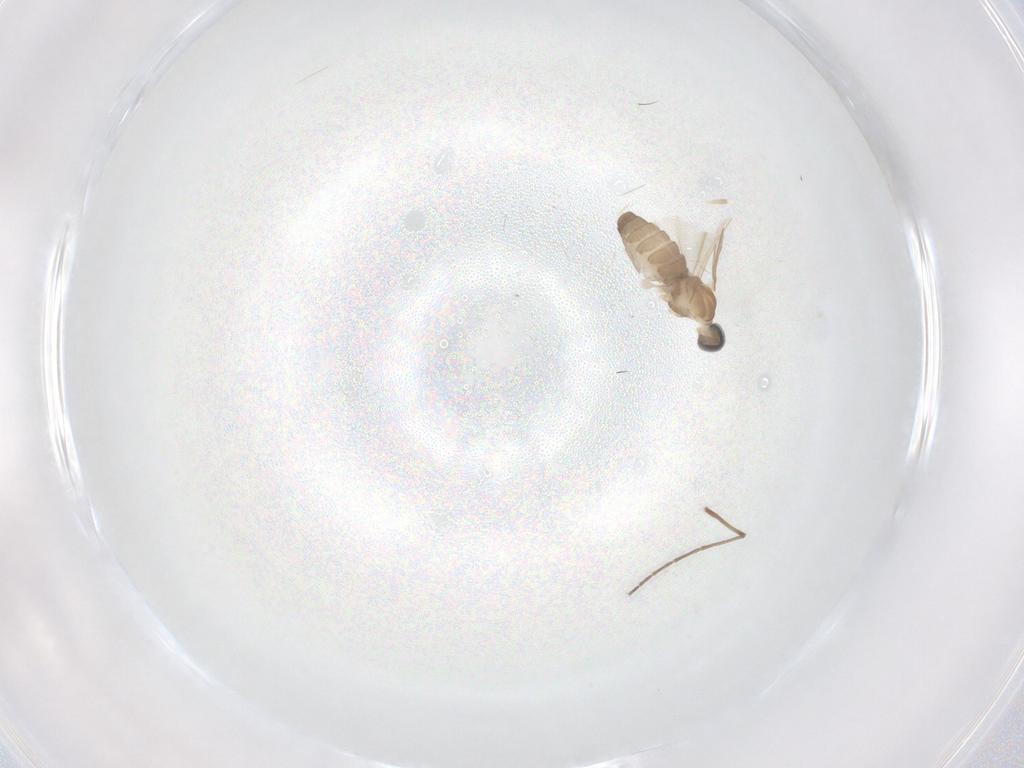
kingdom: Animalia
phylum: Arthropoda
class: Insecta
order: Diptera
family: Cecidomyiidae
